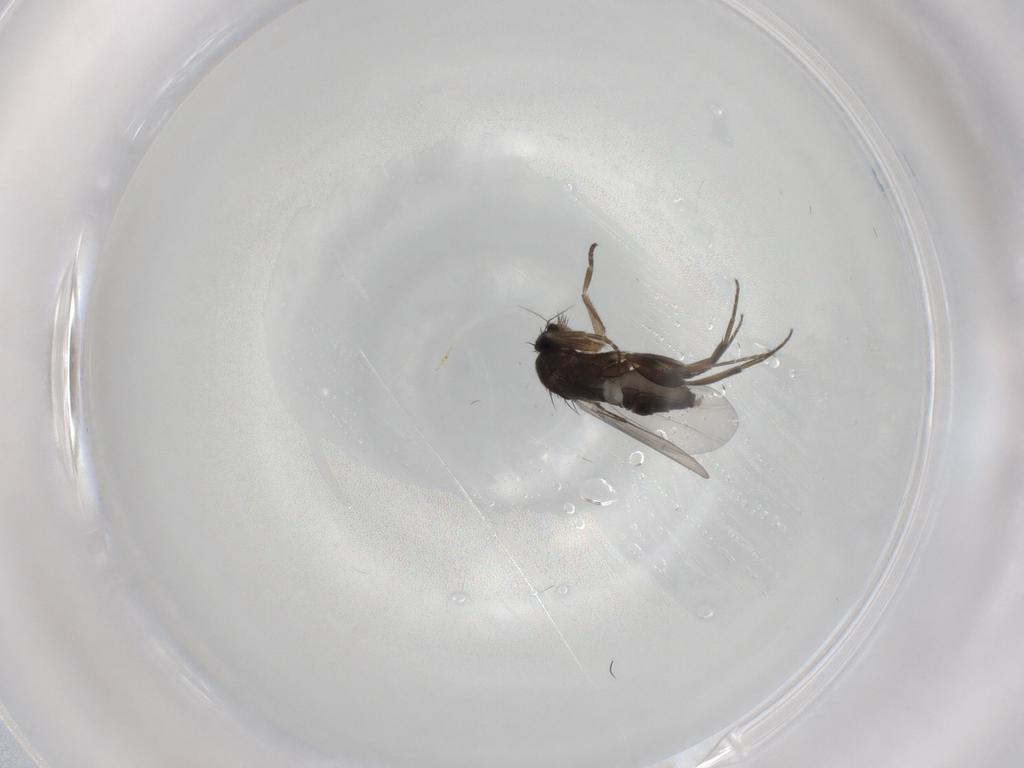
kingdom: Animalia
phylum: Arthropoda
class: Insecta
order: Diptera
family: Phoridae
